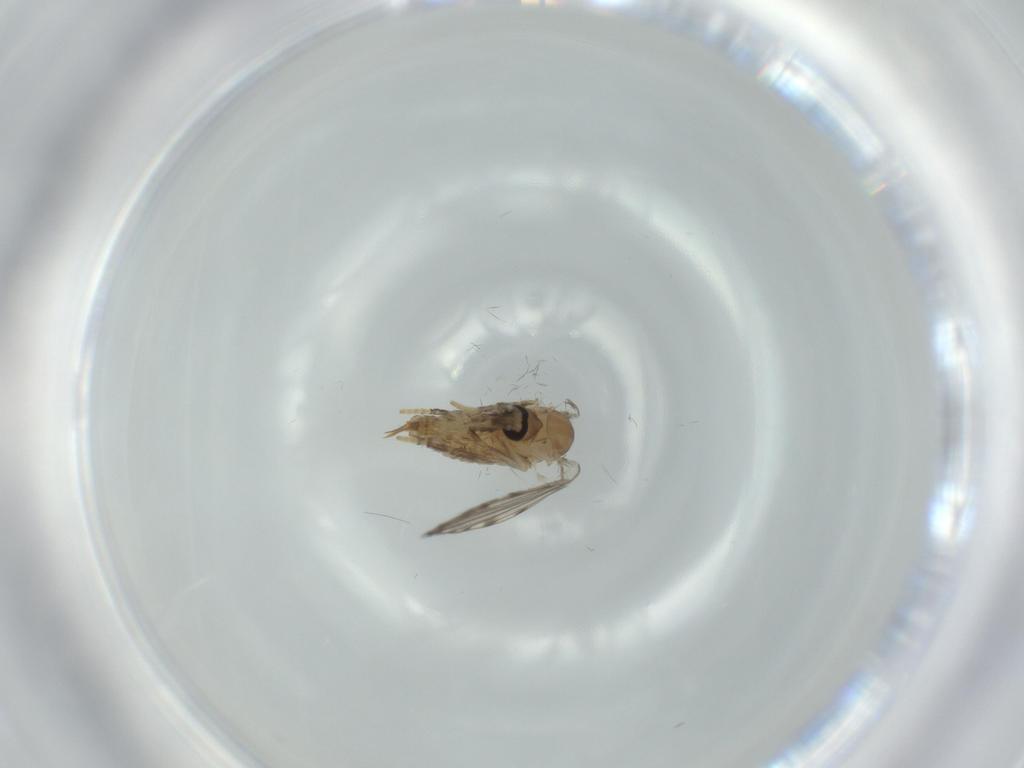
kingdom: Animalia
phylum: Arthropoda
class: Insecta
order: Diptera
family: Psychodidae
